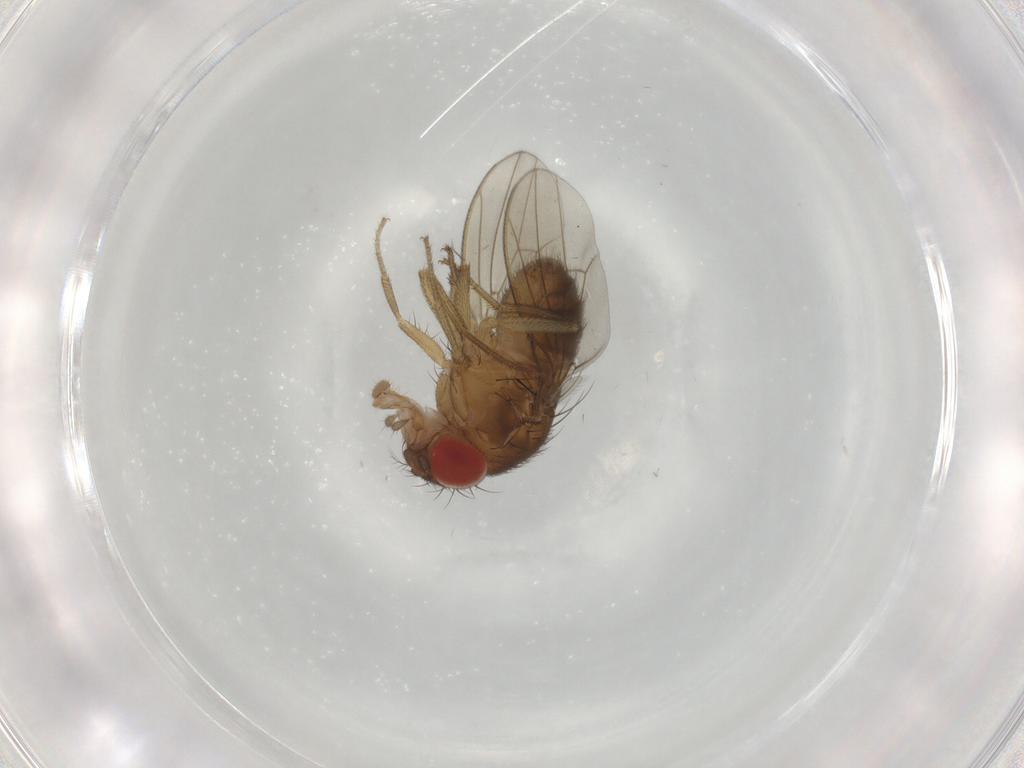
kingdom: Animalia
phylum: Arthropoda
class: Insecta
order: Diptera
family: Drosophilidae
